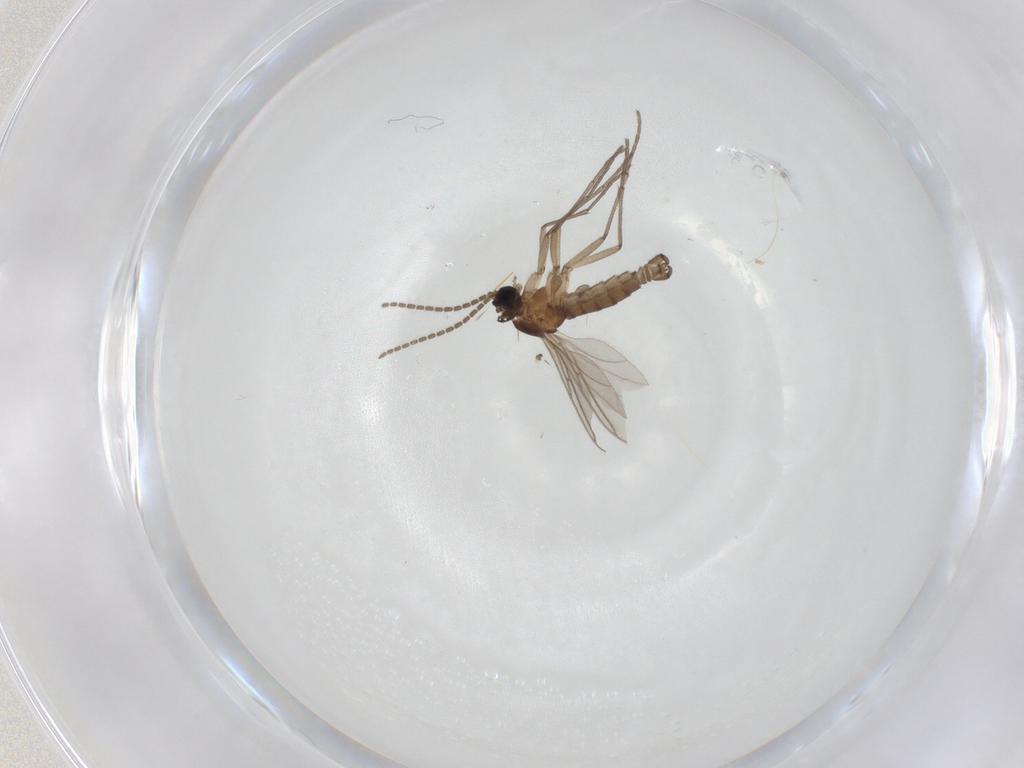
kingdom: Animalia
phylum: Arthropoda
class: Insecta
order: Diptera
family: Sciaridae
